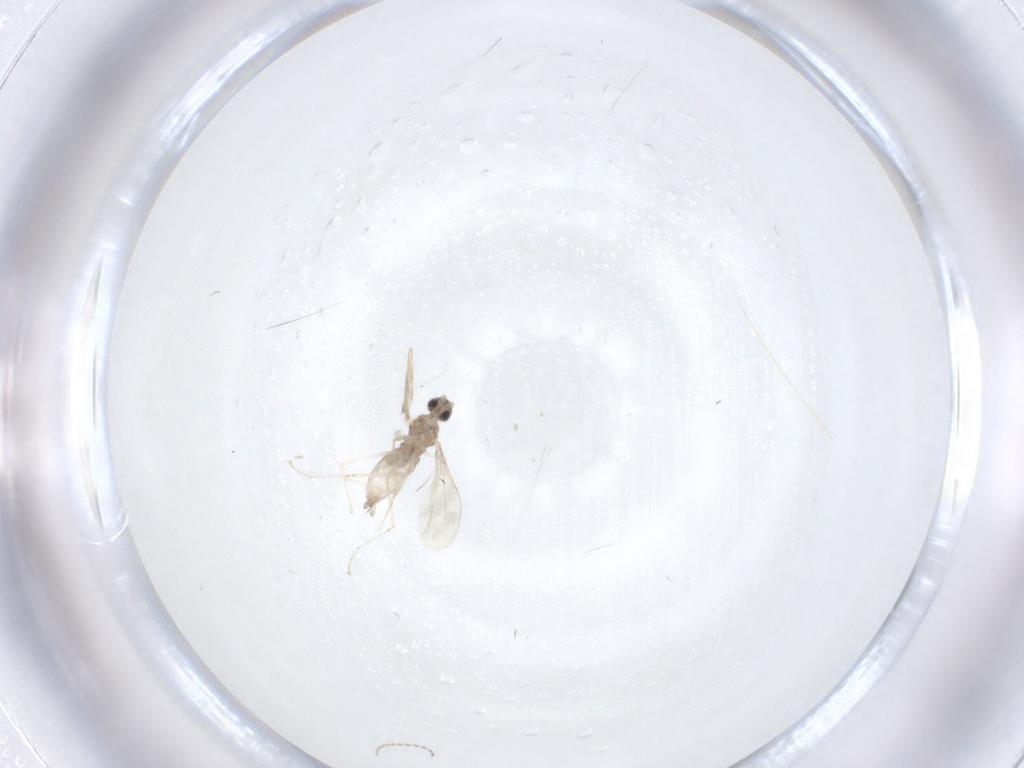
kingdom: Animalia
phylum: Arthropoda
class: Insecta
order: Diptera
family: Cecidomyiidae
